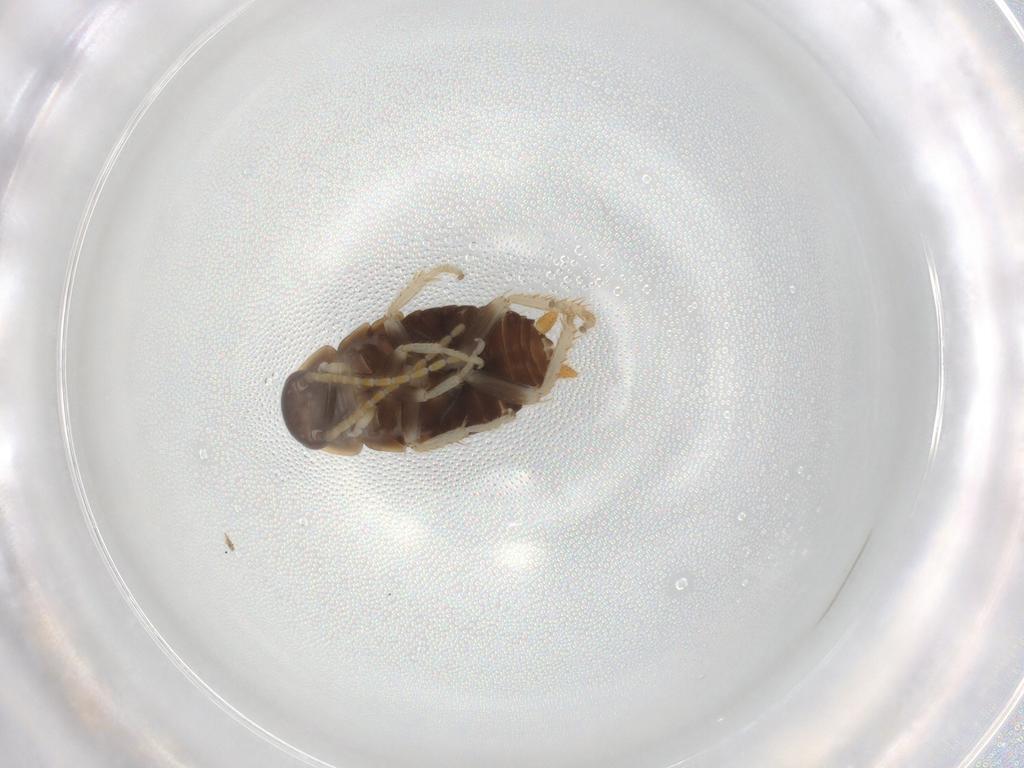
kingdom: Animalia
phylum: Arthropoda
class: Insecta
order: Blattodea
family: Ectobiidae
